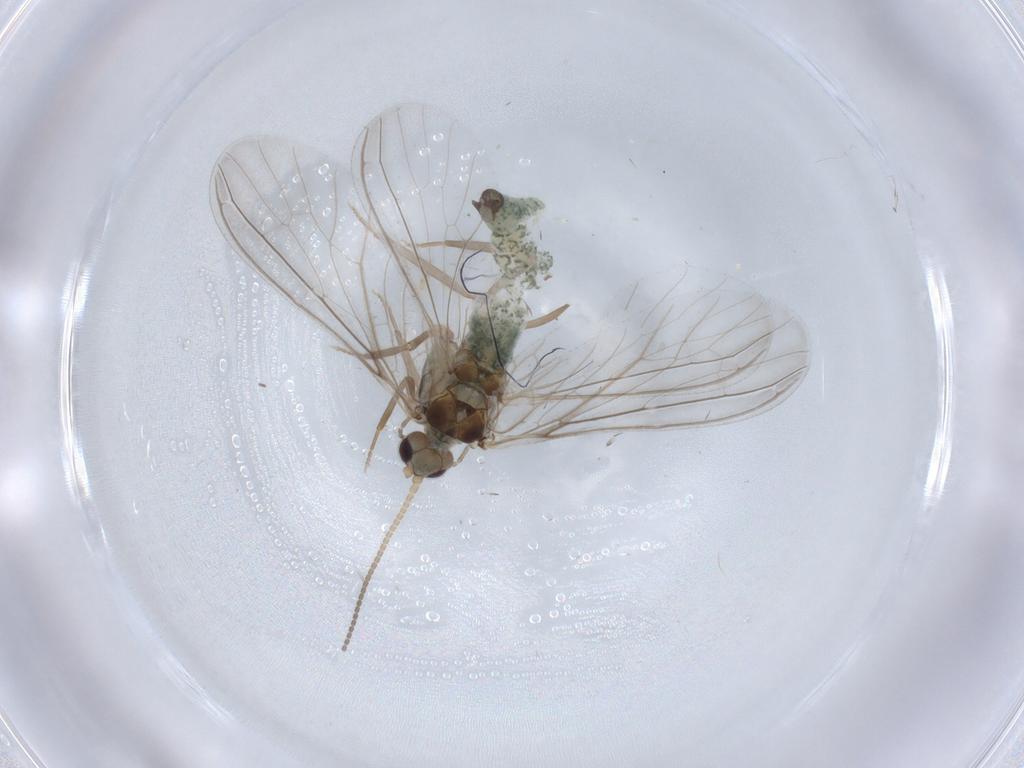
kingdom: Animalia
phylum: Arthropoda
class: Insecta
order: Neuroptera
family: Coniopterygidae
